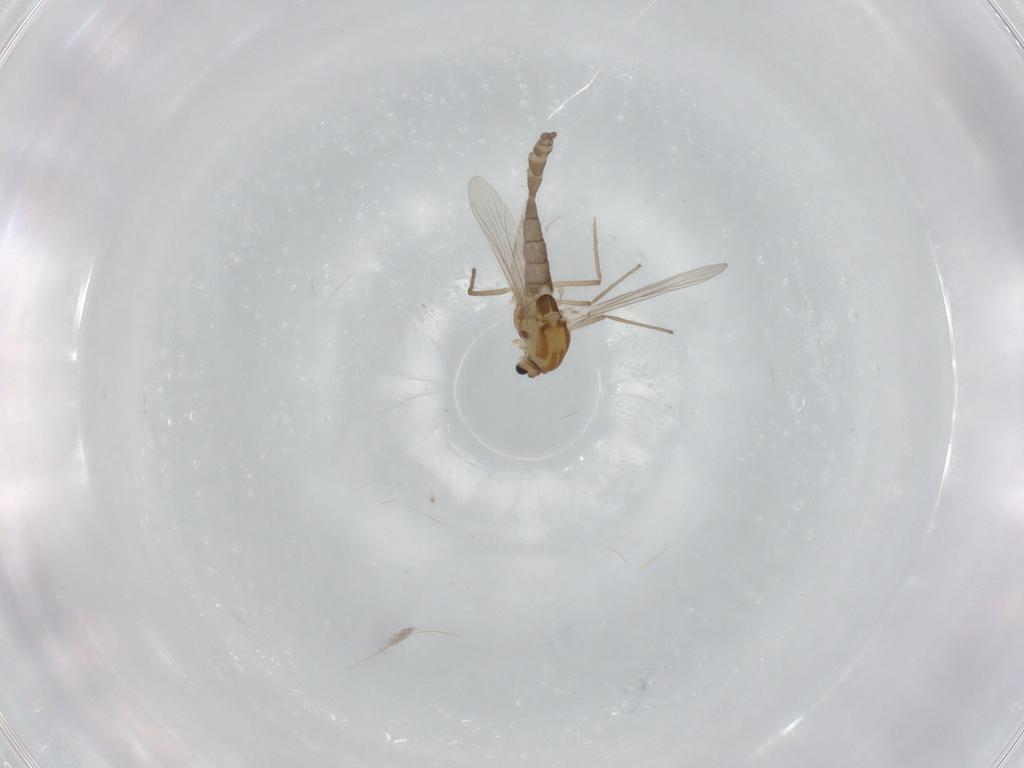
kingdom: Animalia
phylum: Arthropoda
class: Insecta
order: Diptera
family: Chironomidae
